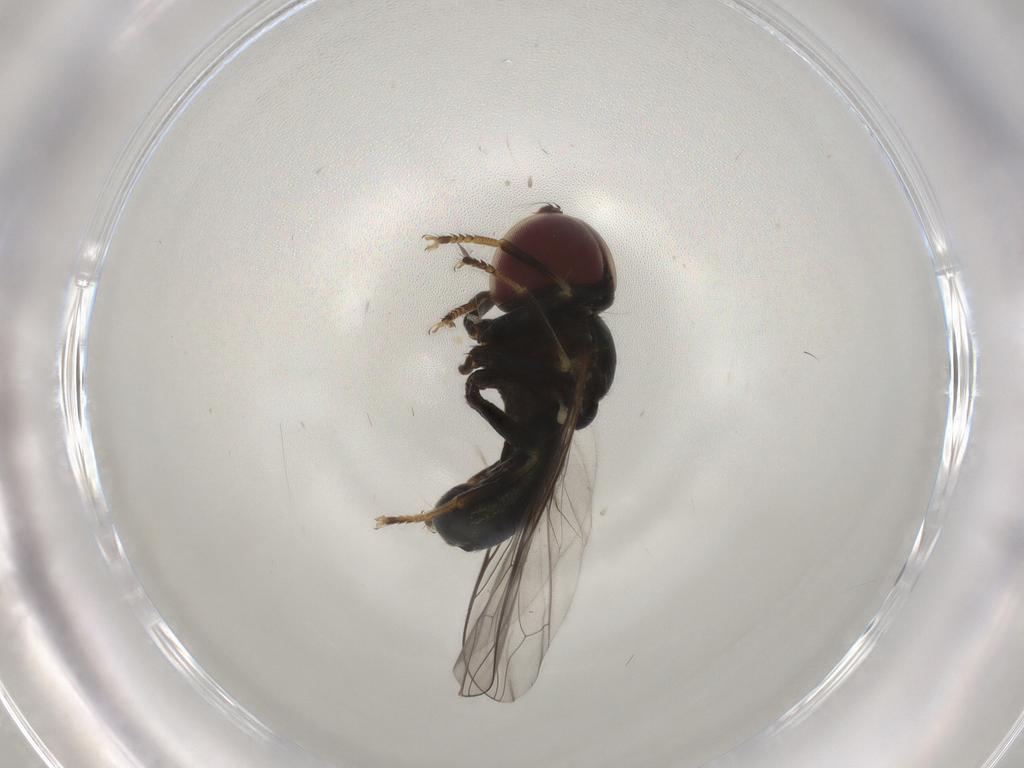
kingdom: Animalia
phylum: Arthropoda
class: Insecta
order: Diptera
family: Pipunculidae
